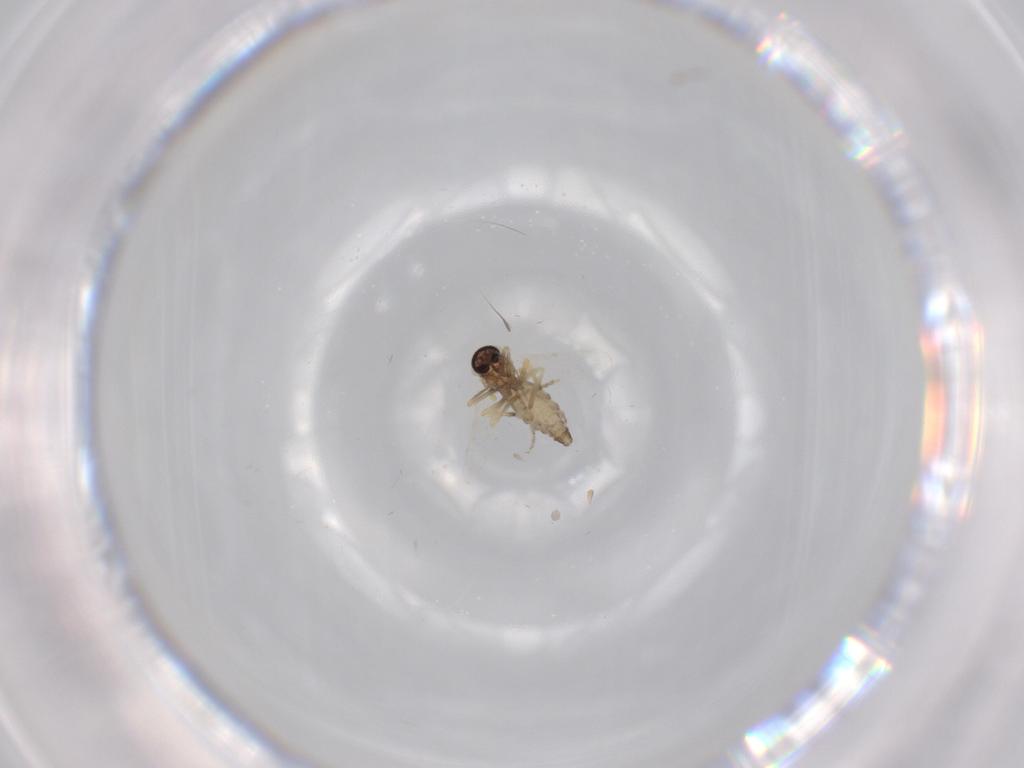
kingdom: Animalia
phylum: Arthropoda
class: Insecta
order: Diptera
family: Ceratopogonidae
